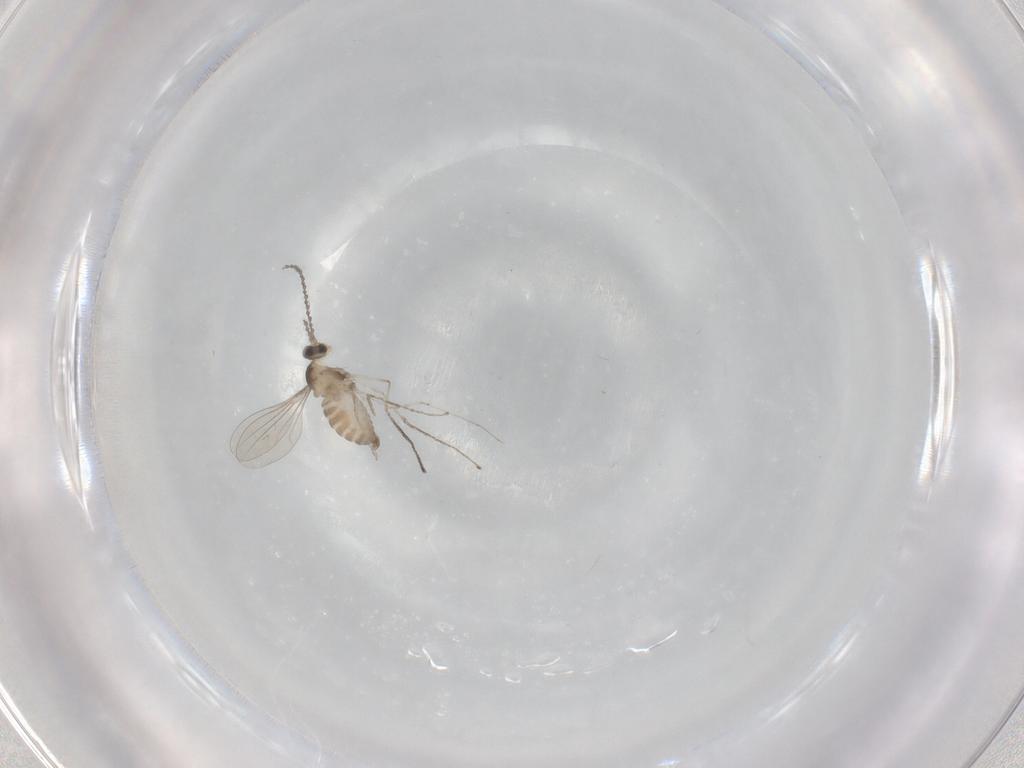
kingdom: Animalia
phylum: Arthropoda
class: Insecta
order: Diptera
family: Cecidomyiidae
